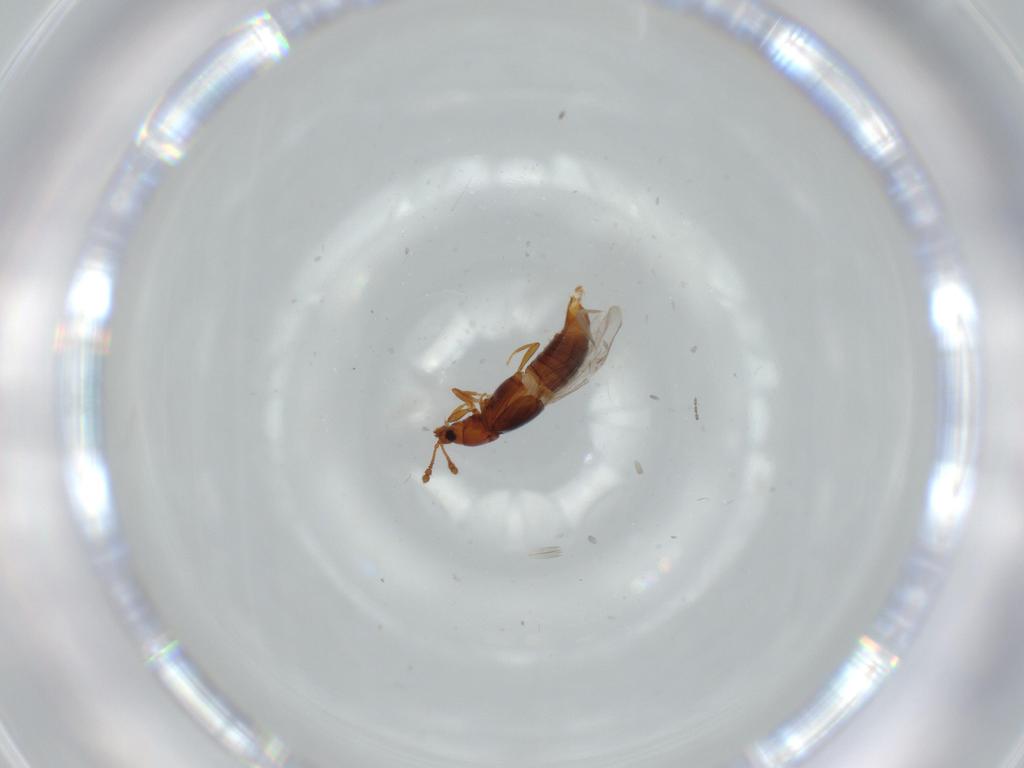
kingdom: Animalia
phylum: Arthropoda
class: Insecta
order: Coleoptera
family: Staphylinidae
